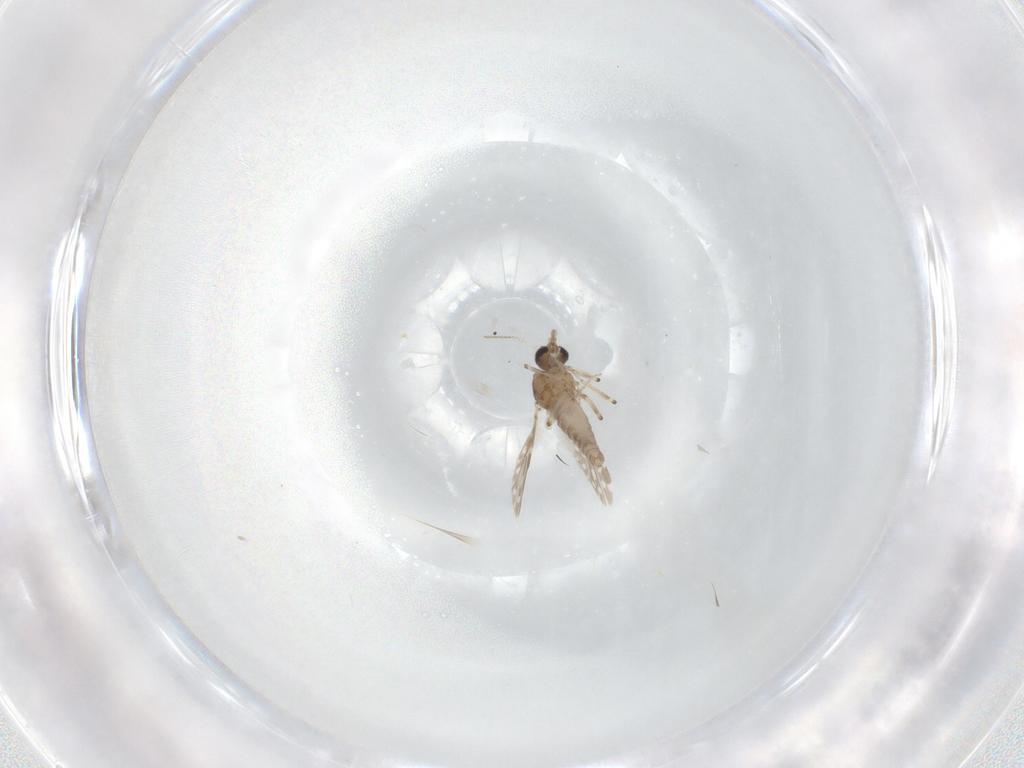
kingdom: Animalia
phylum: Arthropoda
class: Insecta
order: Diptera
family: Ceratopogonidae
